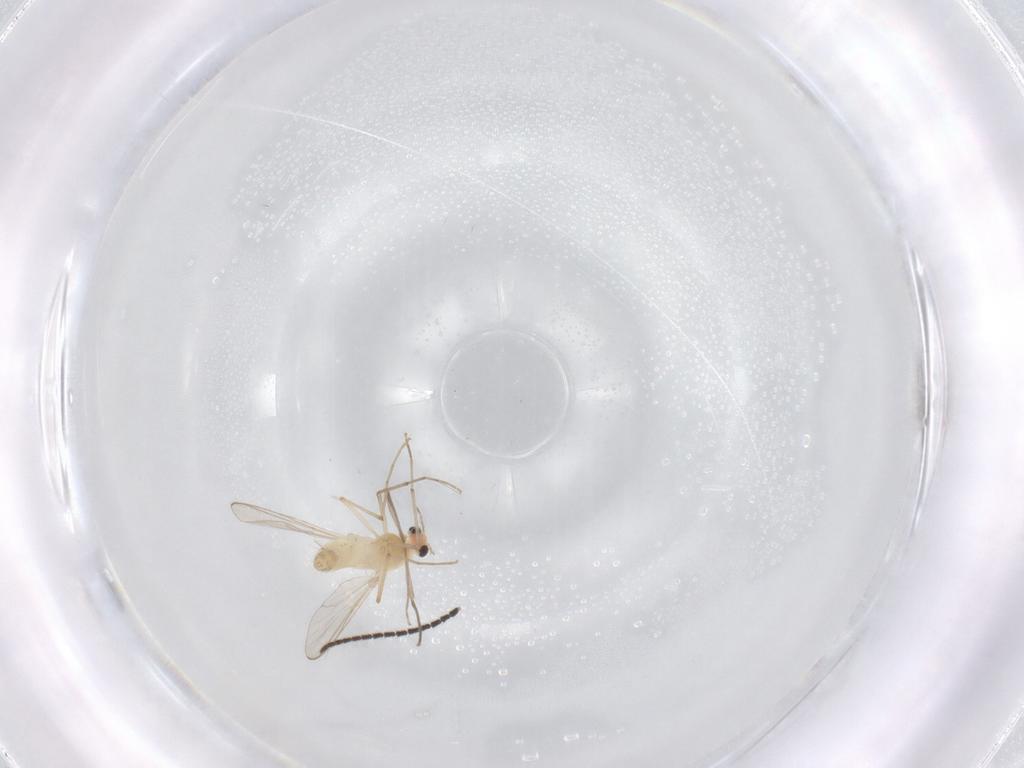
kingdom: Animalia
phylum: Arthropoda
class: Insecta
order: Diptera
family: Chironomidae
